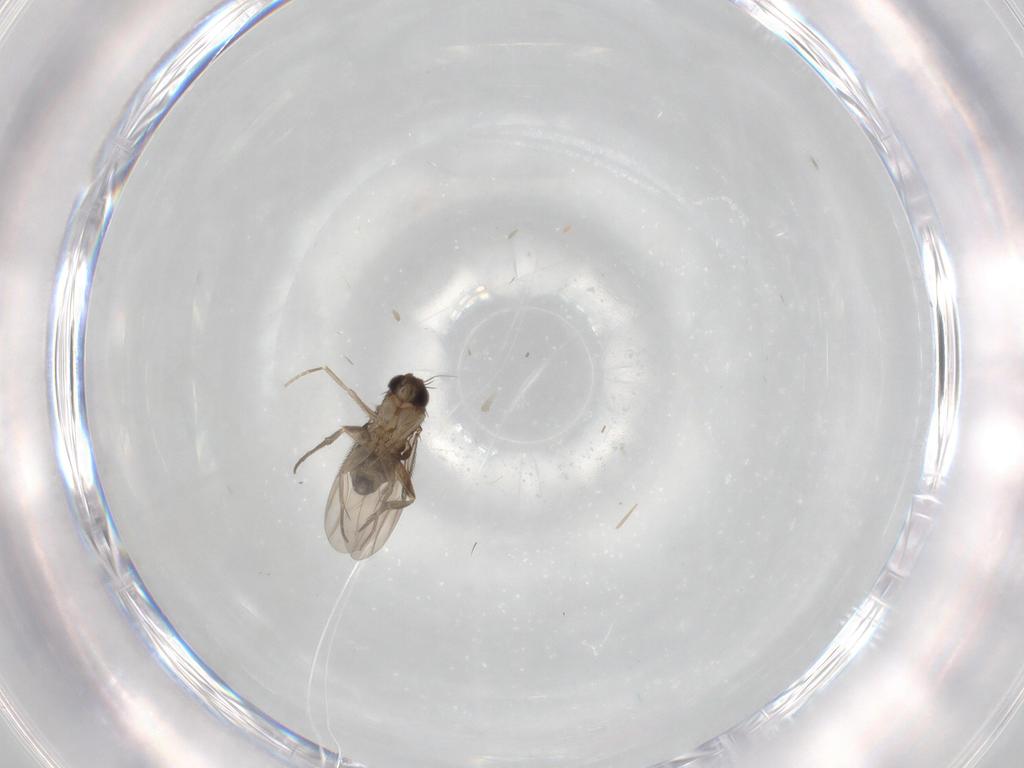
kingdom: Animalia
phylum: Arthropoda
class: Insecta
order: Diptera
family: Phoridae
